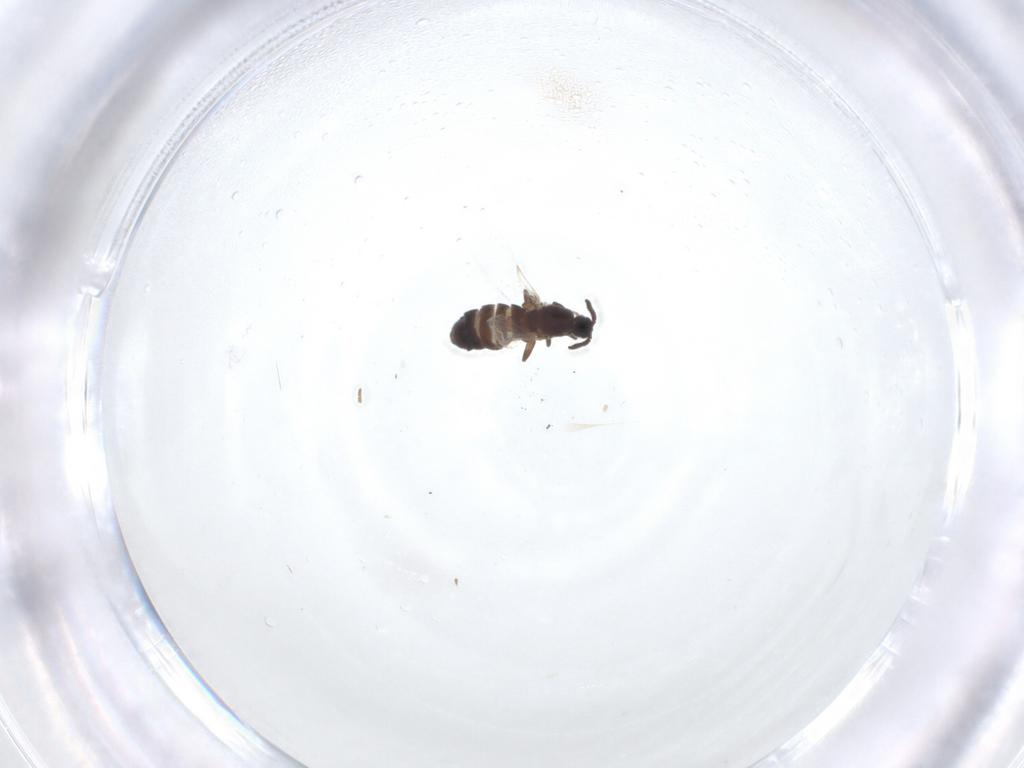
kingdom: Animalia
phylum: Arthropoda
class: Insecta
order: Diptera
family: Scatopsidae
